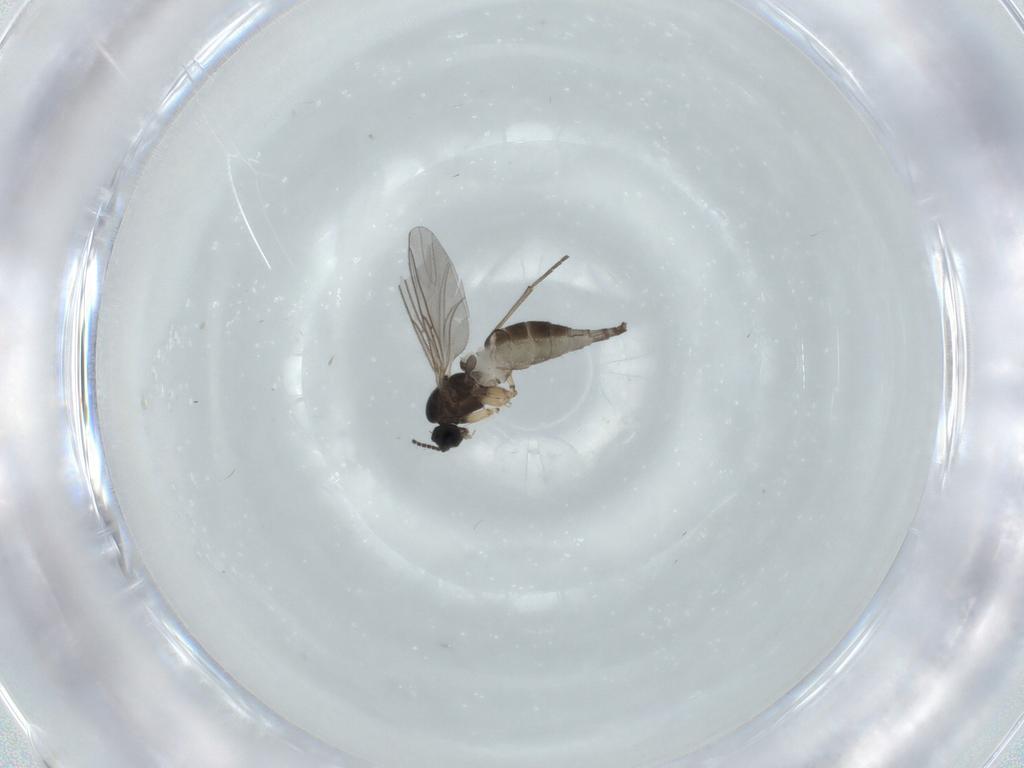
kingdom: Animalia
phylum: Arthropoda
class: Insecta
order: Diptera
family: Sciaridae
